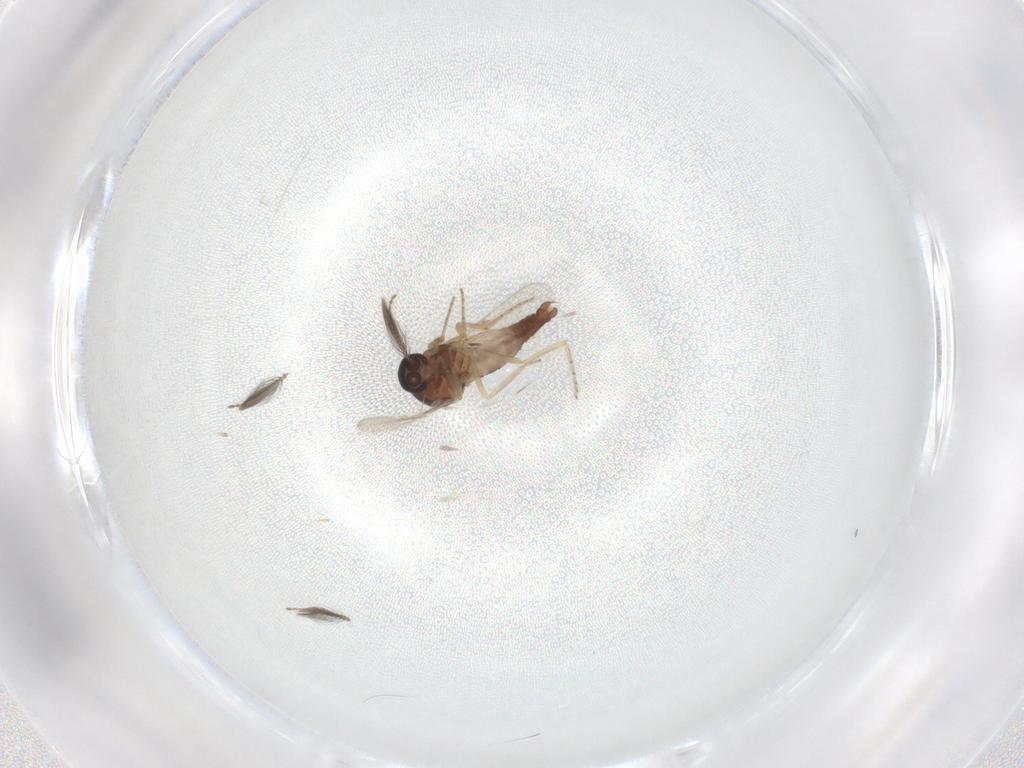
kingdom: Animalia
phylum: Arthropoda
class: Insecta
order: Diptera
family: Ceratopogonidae
